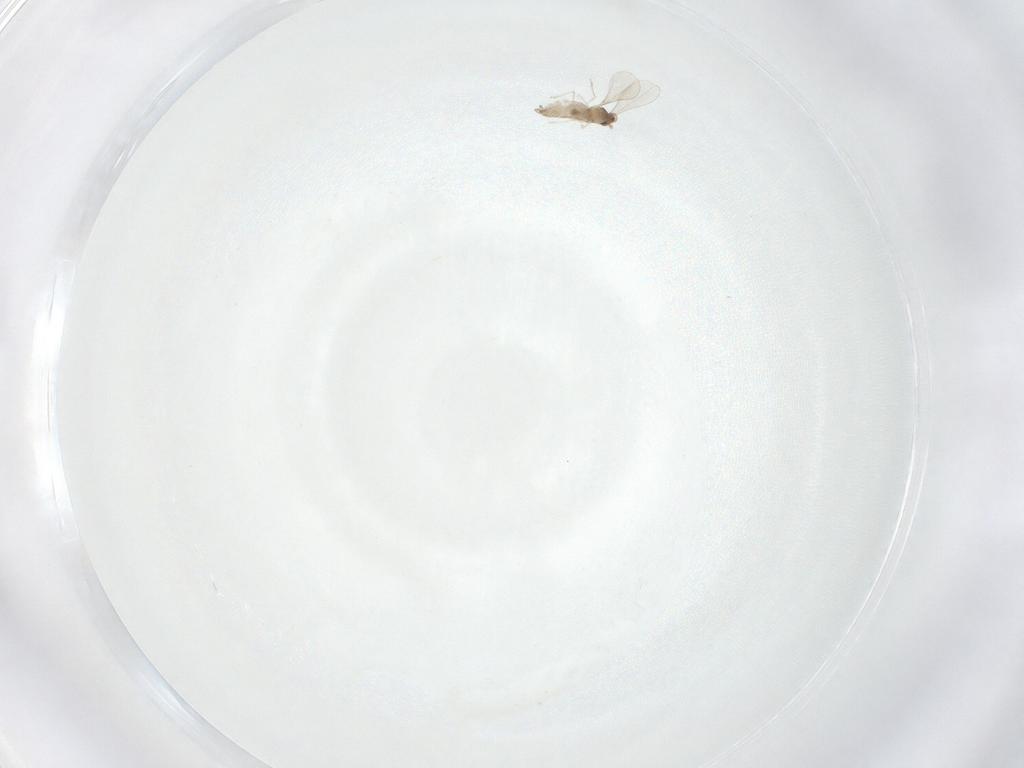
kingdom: Animalia
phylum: Arthropoda
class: Insecta
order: Diptera
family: Cecidomyiidae
